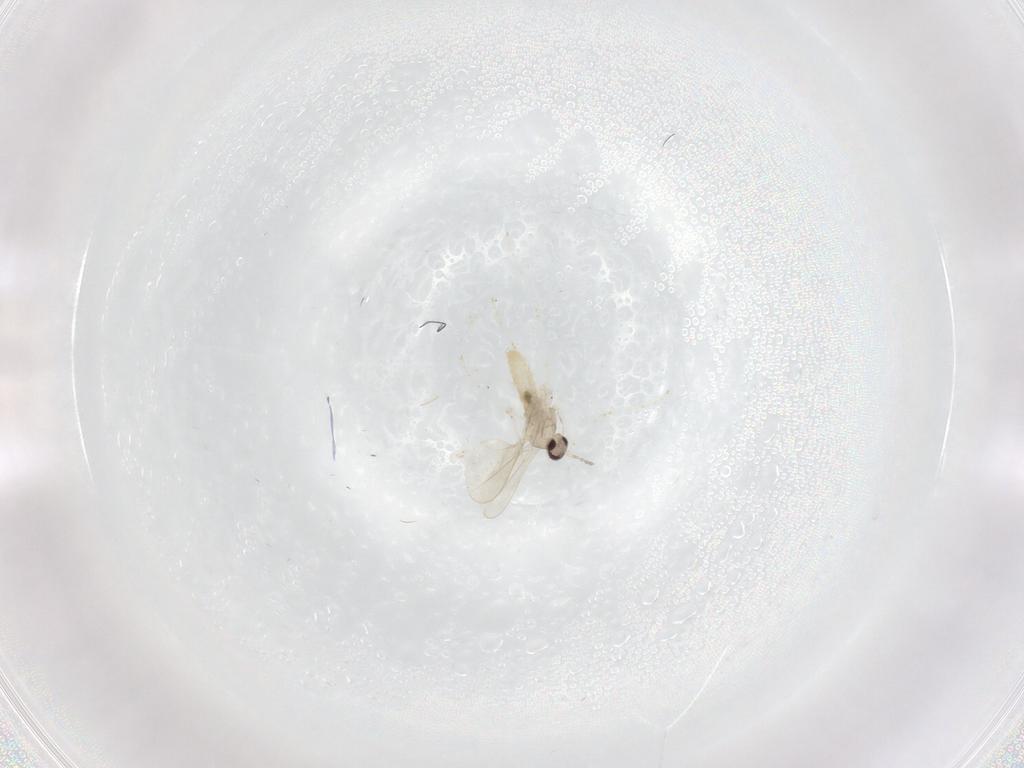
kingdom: Animalia
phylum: Arthropoda
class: Insecta
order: Diptera
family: Cecidomyiidae
